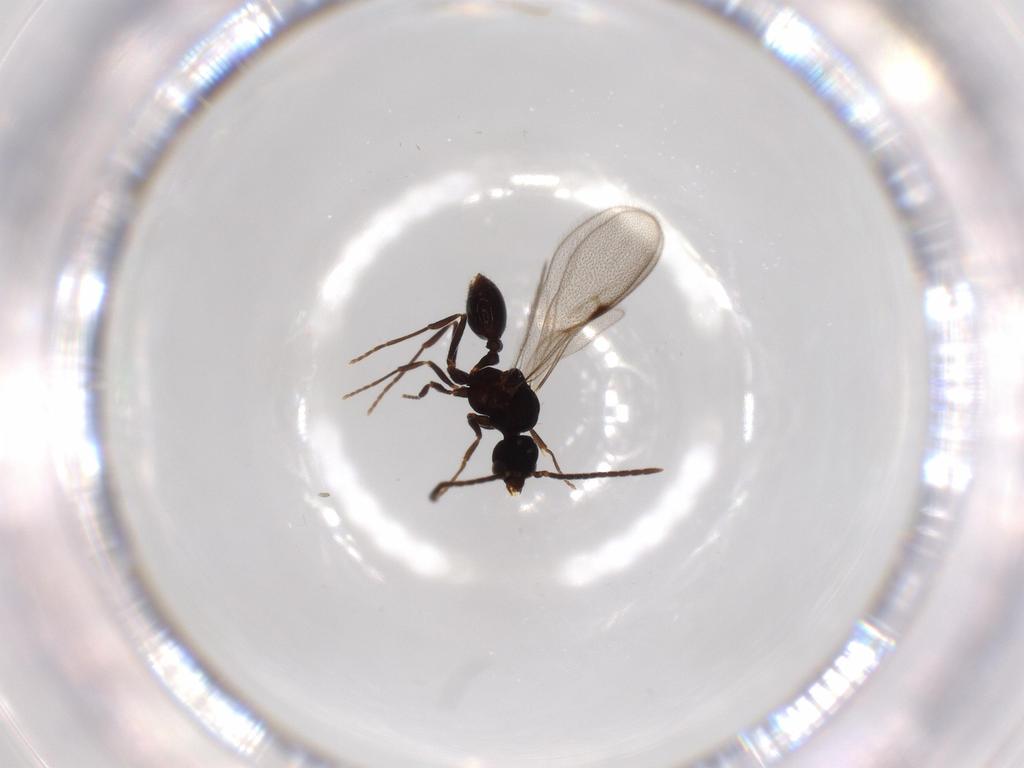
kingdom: Animalia
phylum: Arthropoda
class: Insecta
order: Hymenoptera
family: Formicidae
